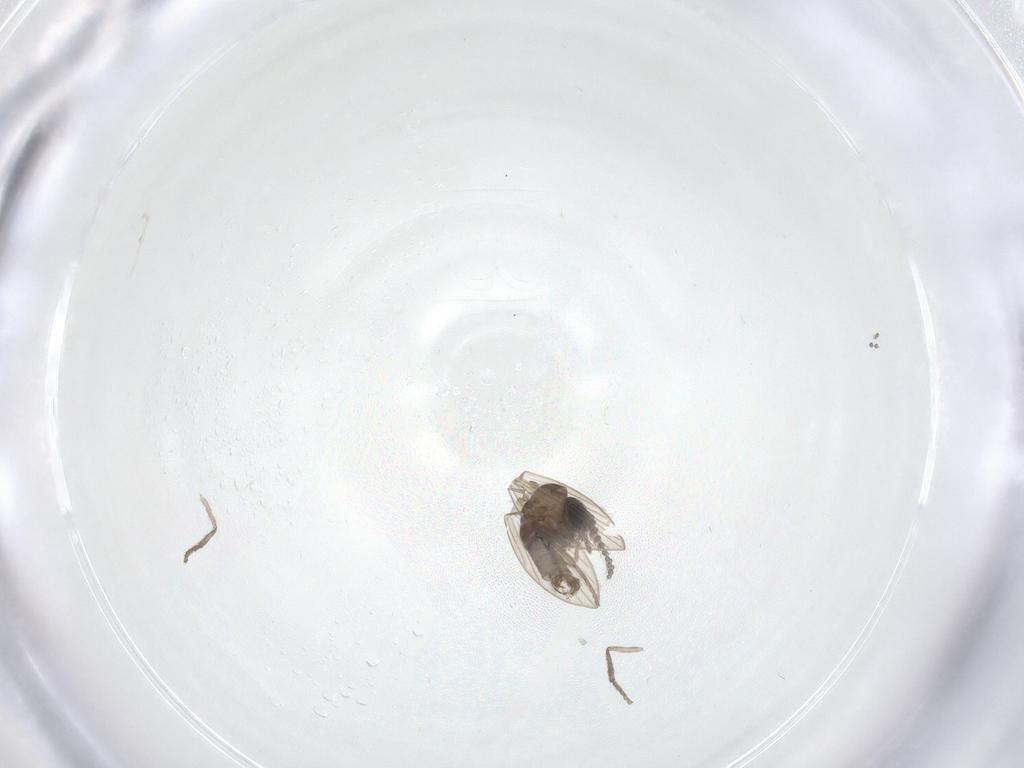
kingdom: Animalia
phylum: Arthropoda
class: Insecta
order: Diptera
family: Psychodidae
